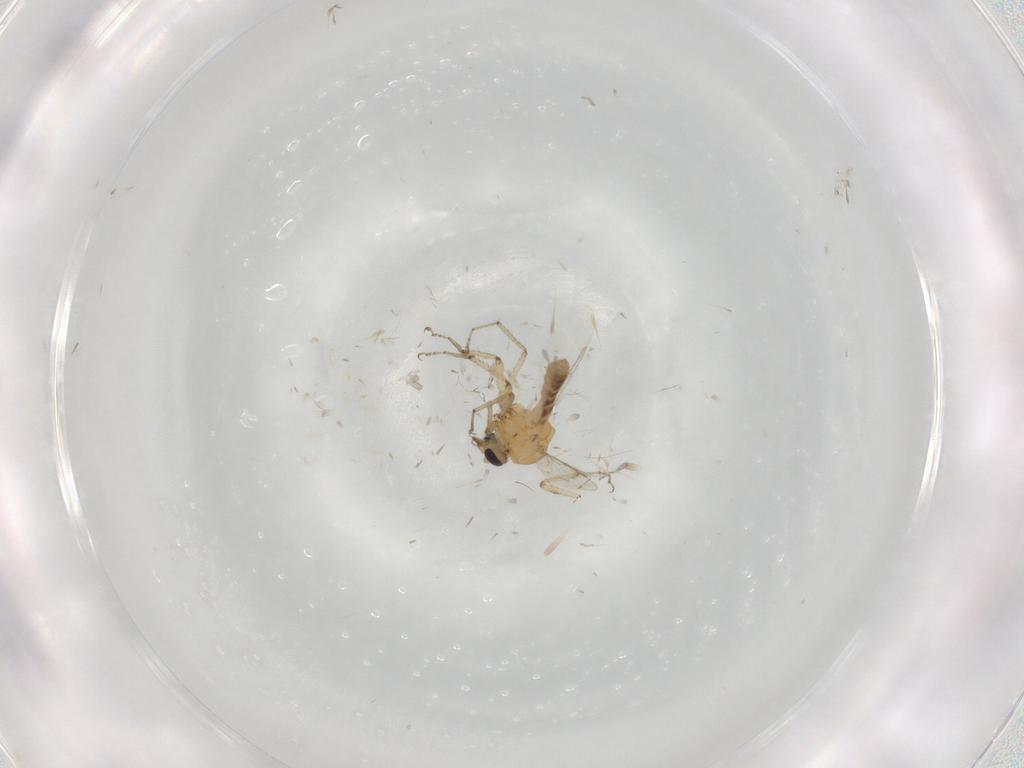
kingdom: Animalia
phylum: Arthropoda
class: Insecta
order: Diptera
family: Ceratopogonidae
